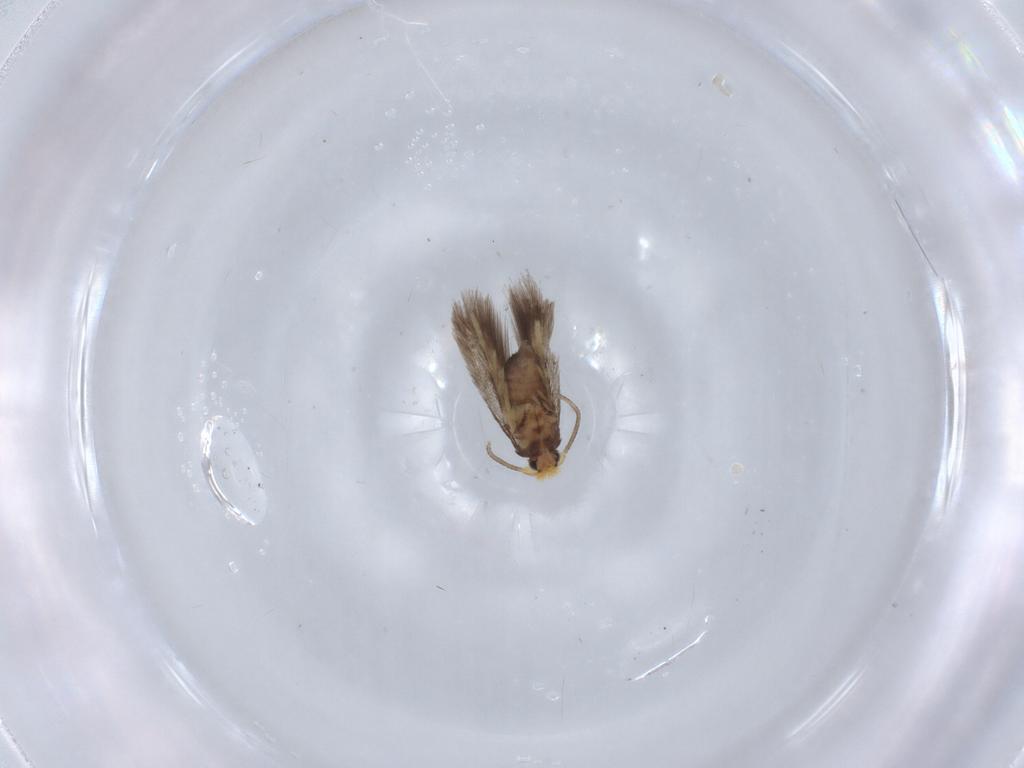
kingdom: Animalia
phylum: Arthropoda
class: Insecta
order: Lepidoptera
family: Nepticulidae
